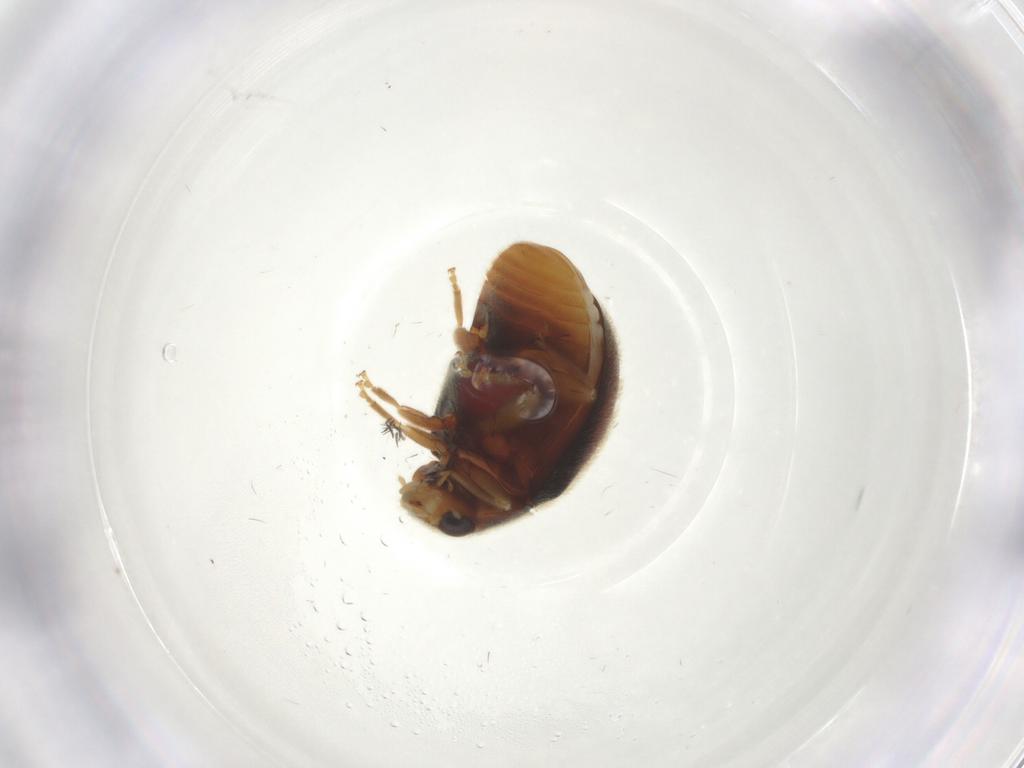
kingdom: Animalia
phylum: Arthropoda
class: Insecta
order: Coleoptera
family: Coccinellidae
